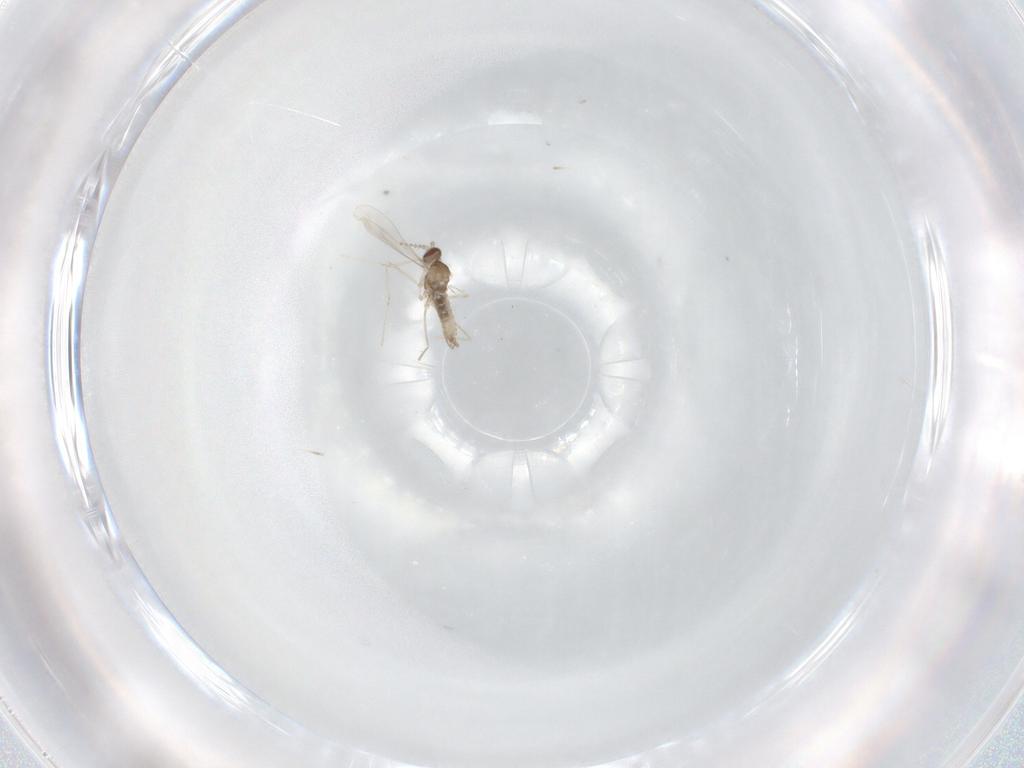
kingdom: Animalia
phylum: Arthropoda
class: Insecta
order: Diptera
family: Cecidomyiidae
